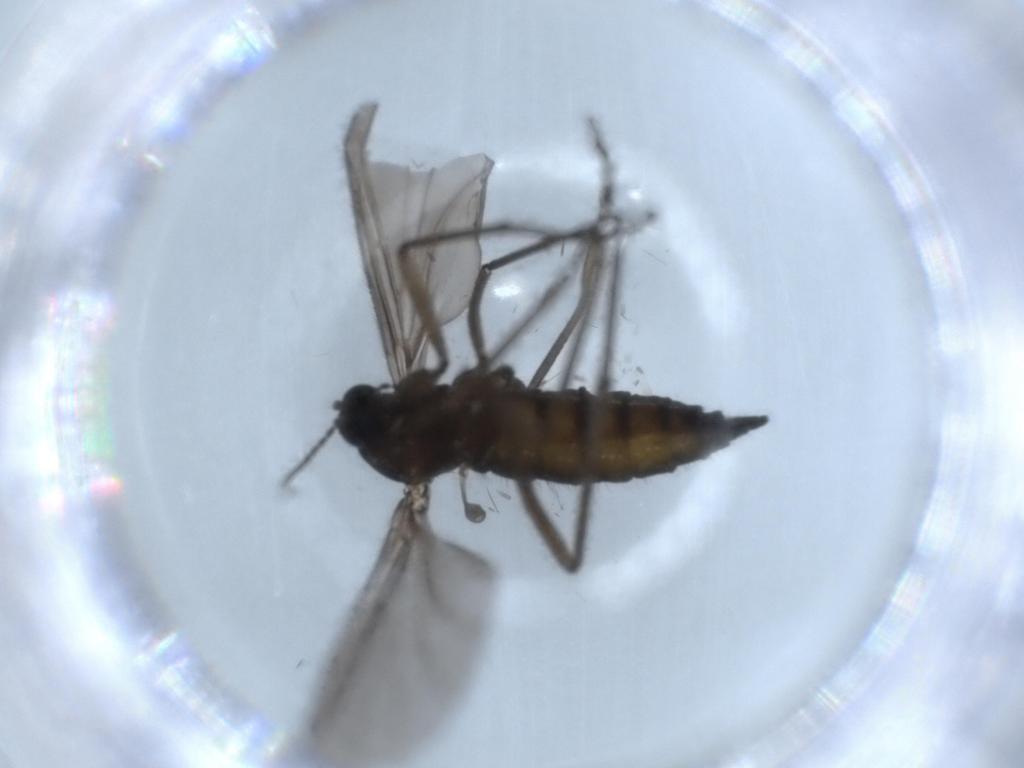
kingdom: Animalia
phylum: Arthropoda
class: Insecta
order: Diptera
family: Sciaridae
